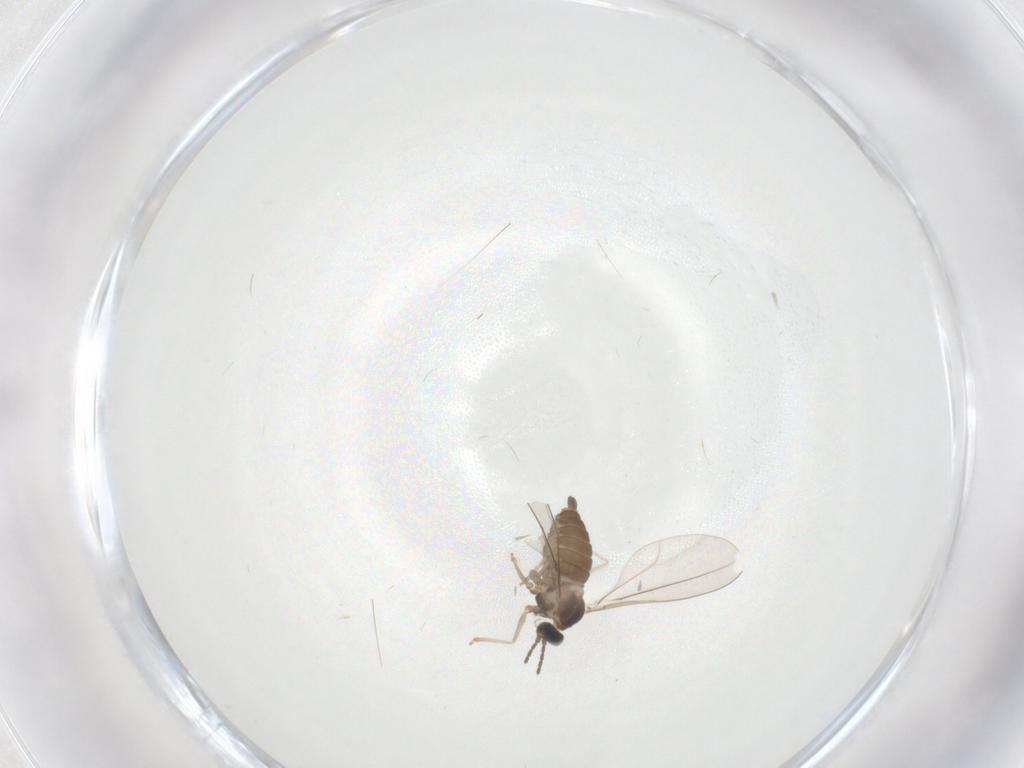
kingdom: Animalia
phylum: Arthropoda
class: Insecta
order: Diptera
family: Cecidomyiidae
